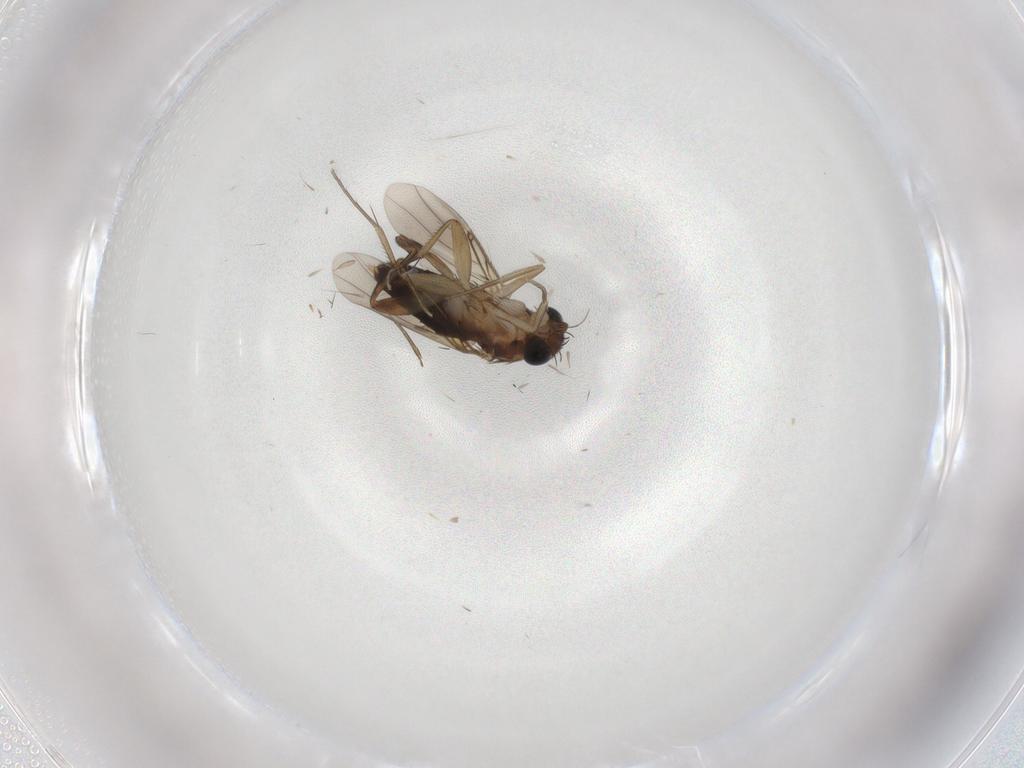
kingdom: Animalia
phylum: Arthropoda
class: Insecta
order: Diptera
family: Phoridae
